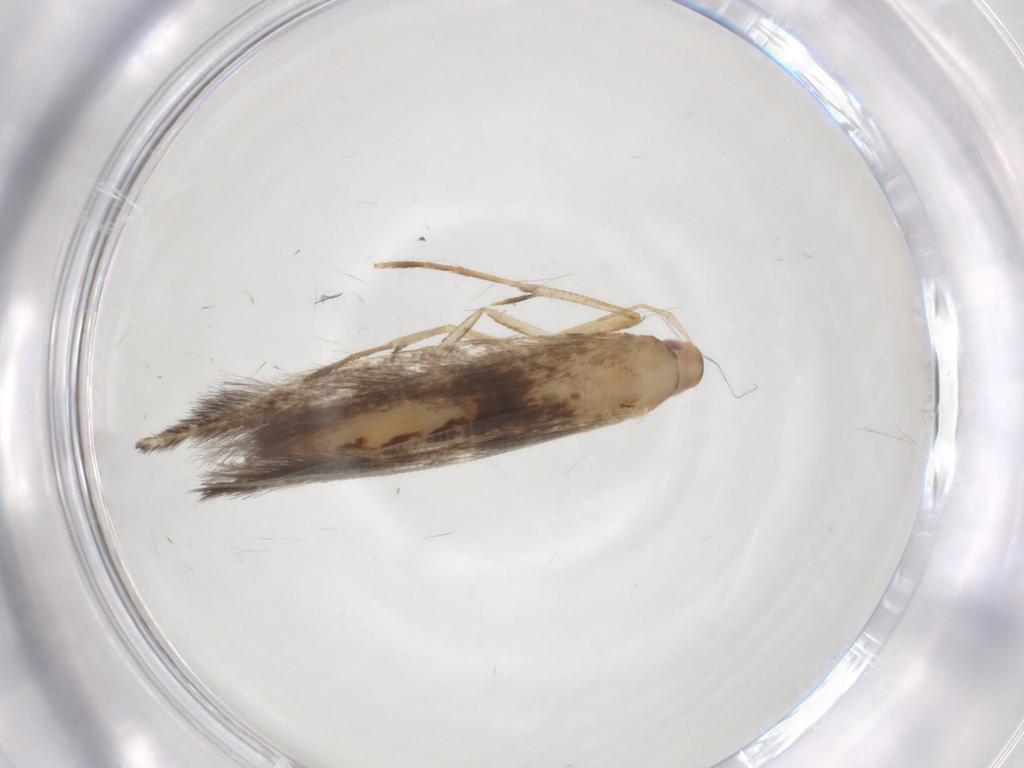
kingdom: Animalia
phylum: Arthropoda
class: Insecta
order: Lepidoptera
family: Cosmopterigidae
